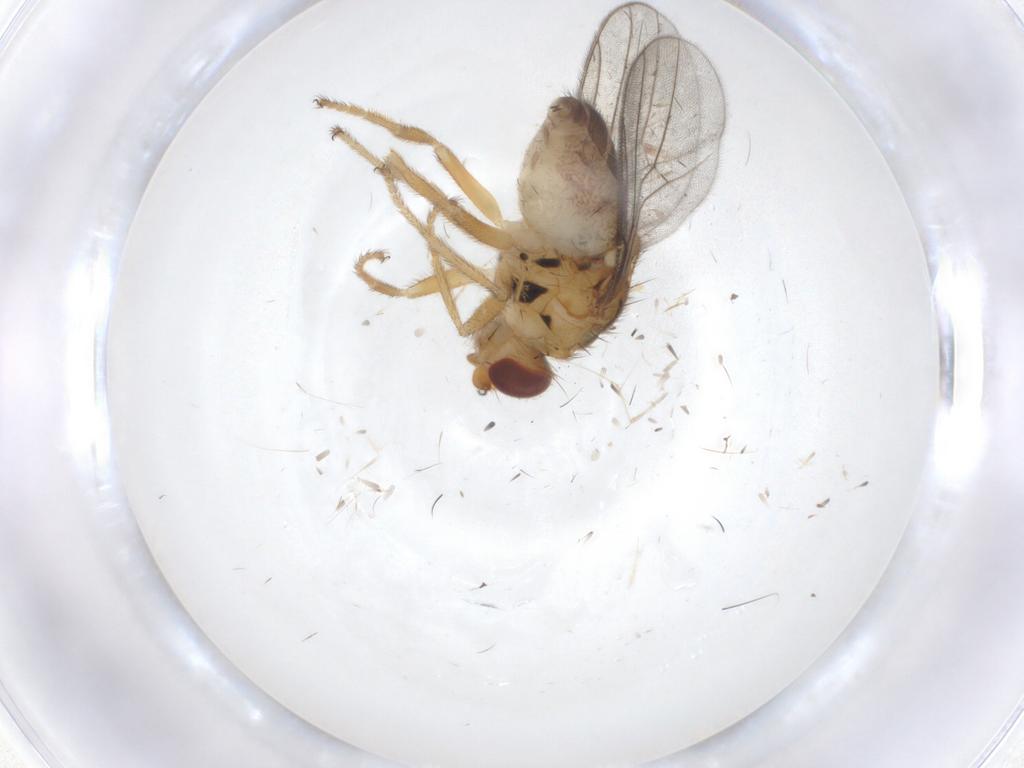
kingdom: Animalia
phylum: Arthropoda
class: Insecta
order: Diptera
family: Chloropidae
